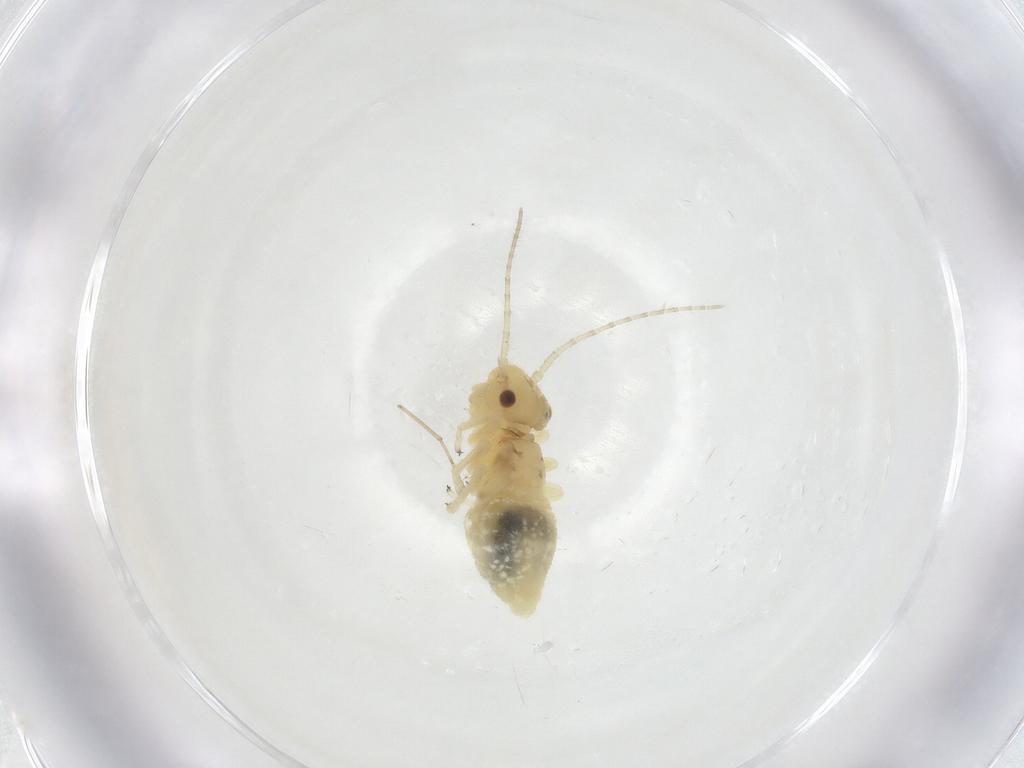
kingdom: Animalia
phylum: Arthropoda
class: Insecta
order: Psocodea
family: Amphipsocidae
